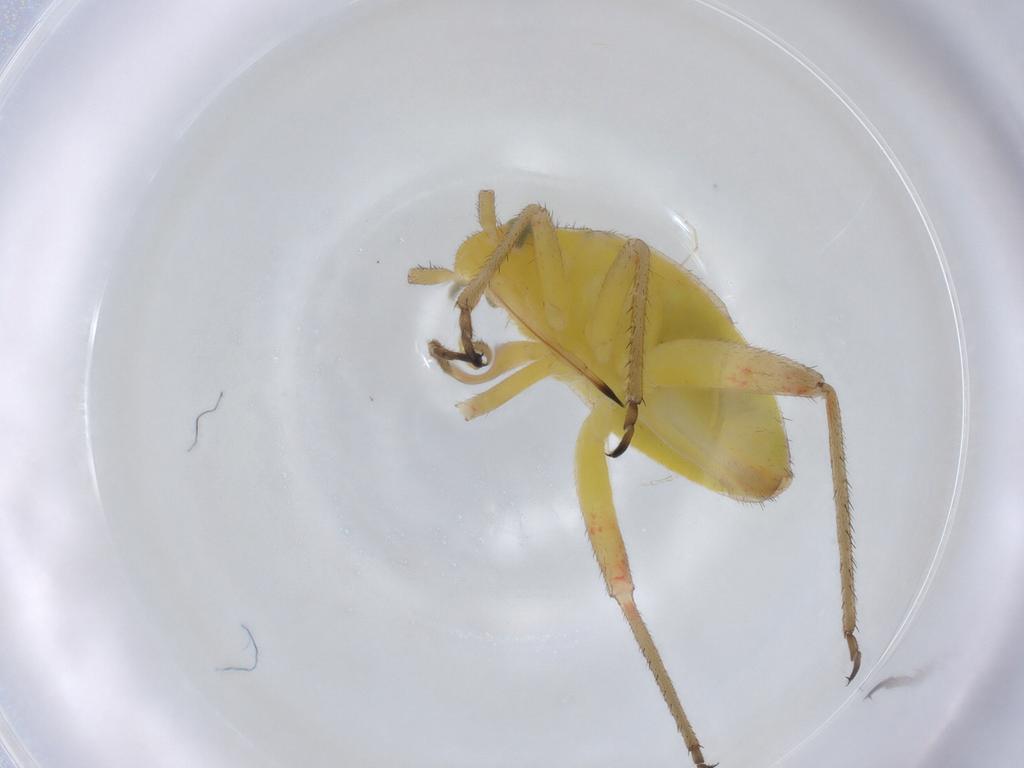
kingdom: Animalia
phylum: Arthropoda
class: Insecta
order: Hemiptera
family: Miridae
